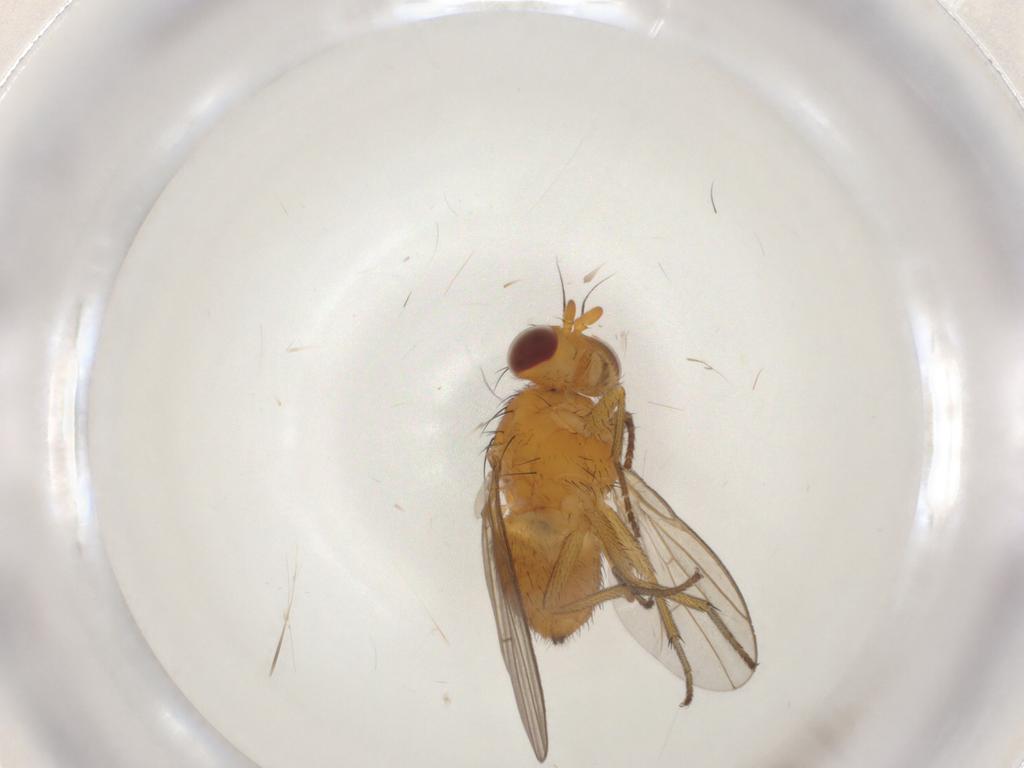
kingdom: Animalia
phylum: Arthropoda
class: Insecta
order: Diptera
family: Lauxaniidae
